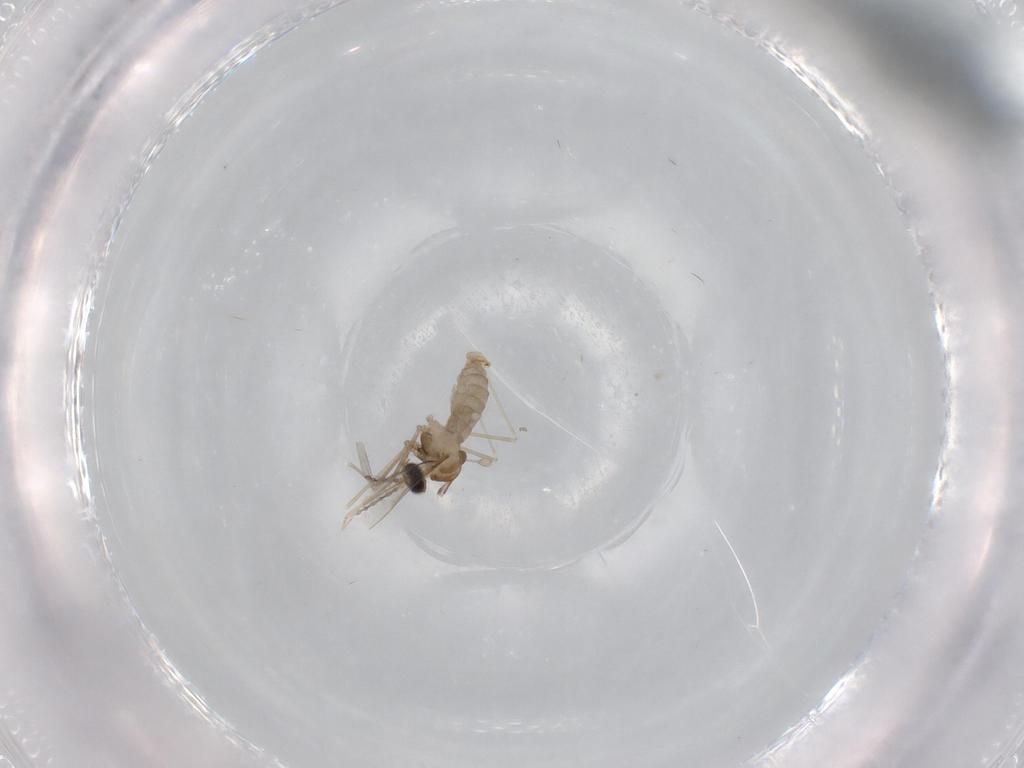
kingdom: Animalia
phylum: Arthropoda
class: Insecta
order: Diptera
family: Cecidomyiidae
